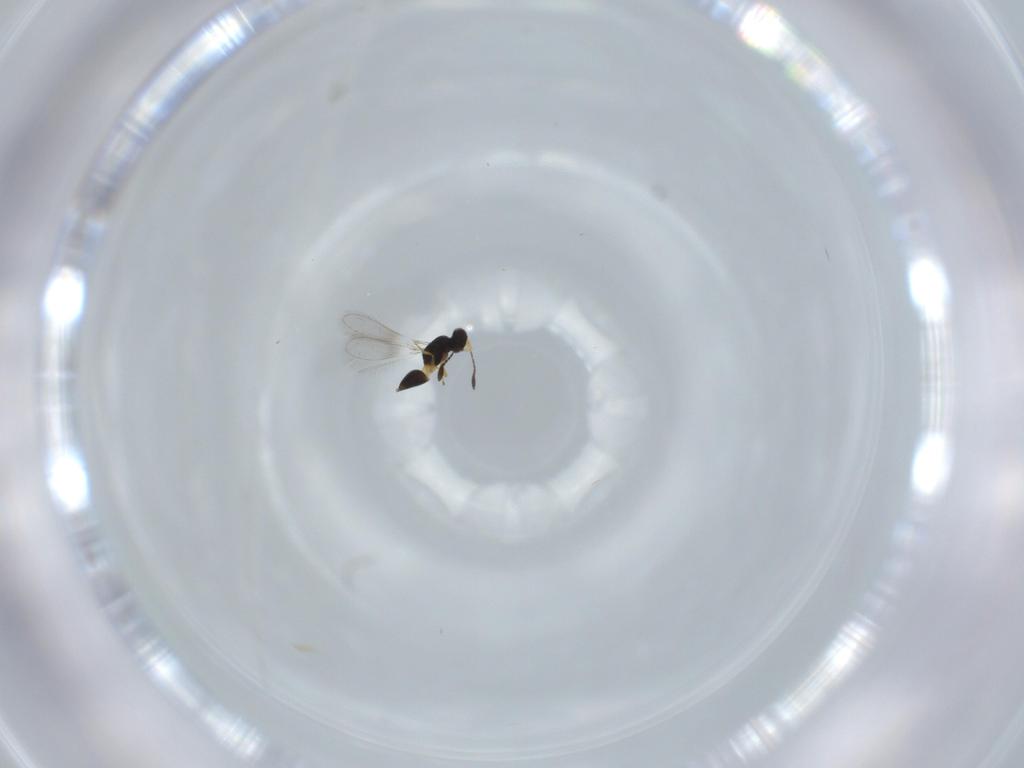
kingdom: Animalia
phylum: Arthropoda
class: Insecta
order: Hymenoptera
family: Mymaridae
